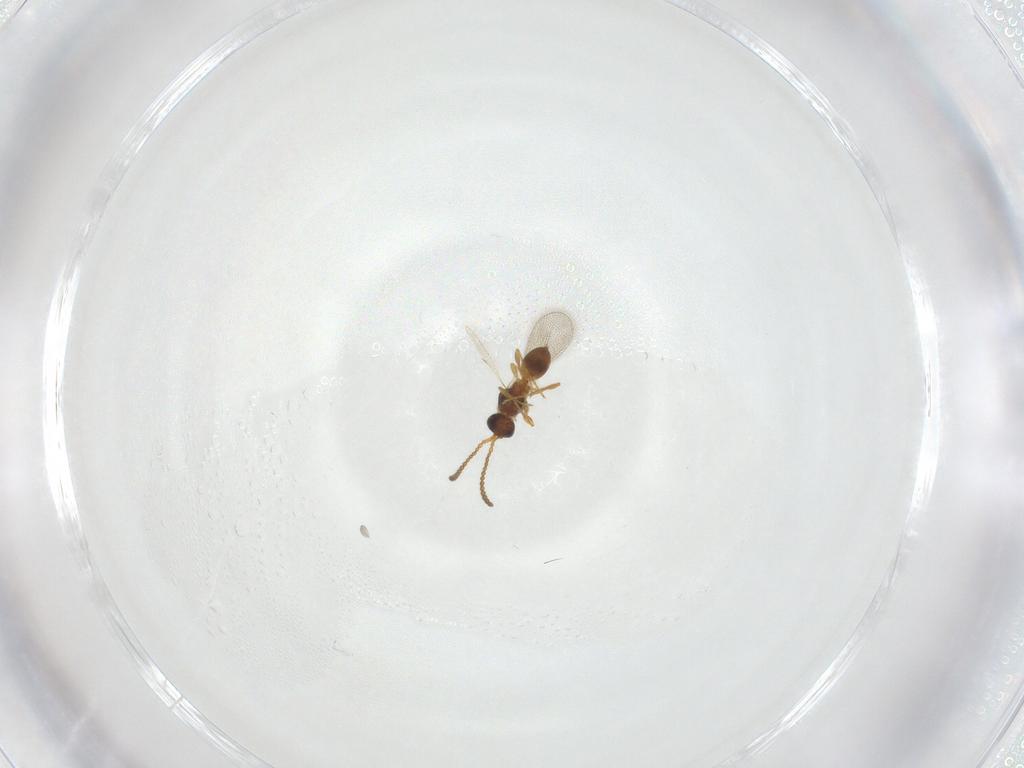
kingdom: Animalia
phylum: Arthropoda
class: Insecta
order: Hymenoptera
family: Diapriidae
